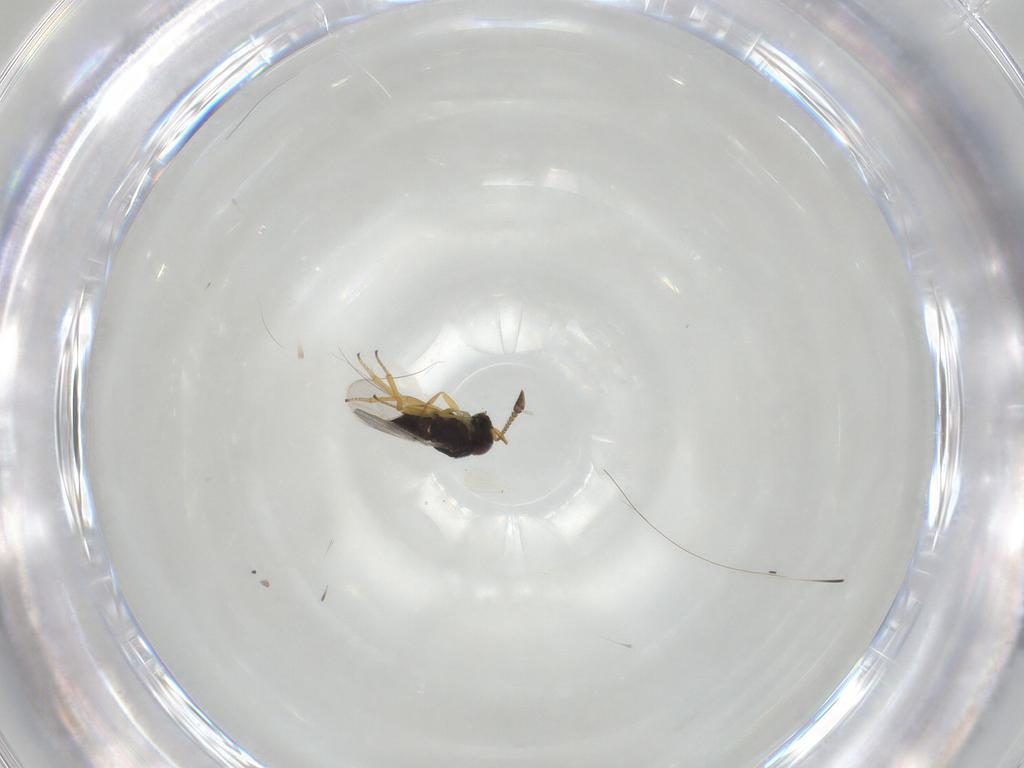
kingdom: Animalia
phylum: Arthropoda
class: Insecta
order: Hymenoptera
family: Encyrtidae
